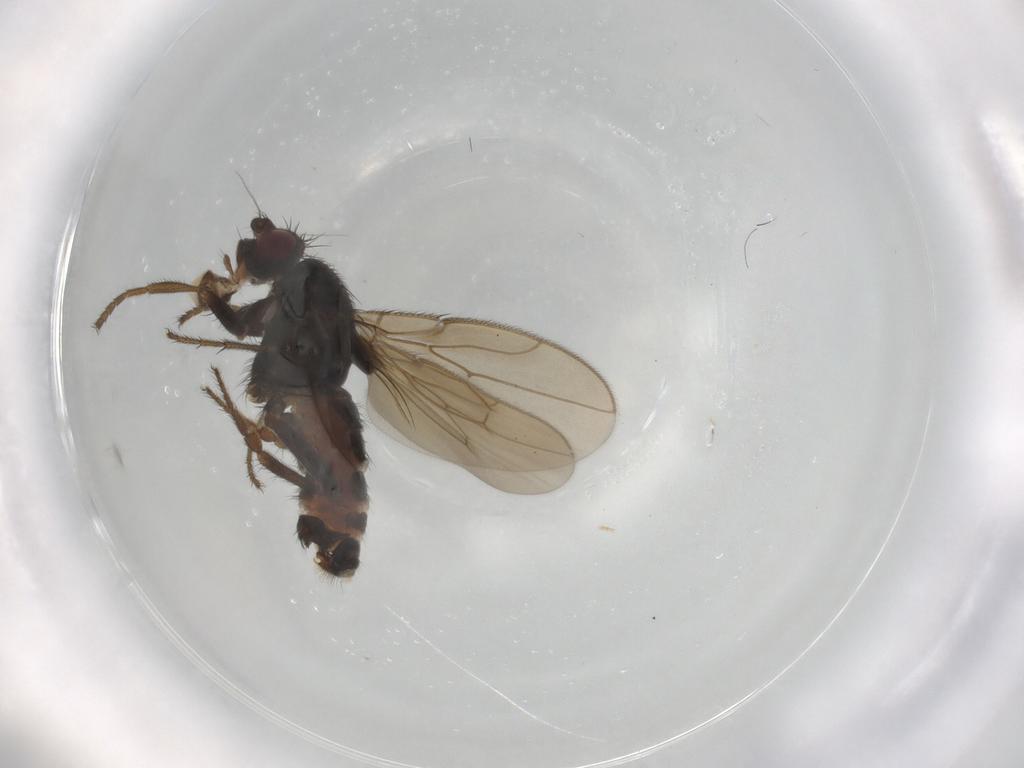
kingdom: Animalia
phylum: Arthropoda
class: Insecta
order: Diptera
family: Sphaeroceridae
